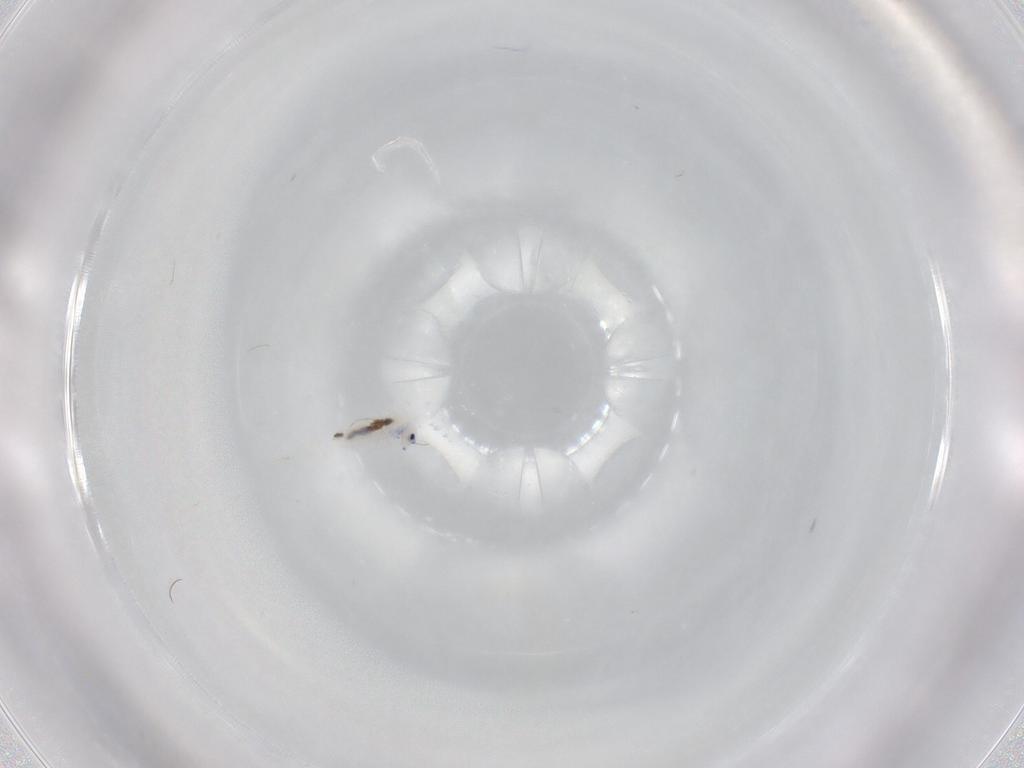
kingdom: Animalia
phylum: Arthropoda
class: Collembola
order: Entomobryomorpha
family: Entomobryidae
